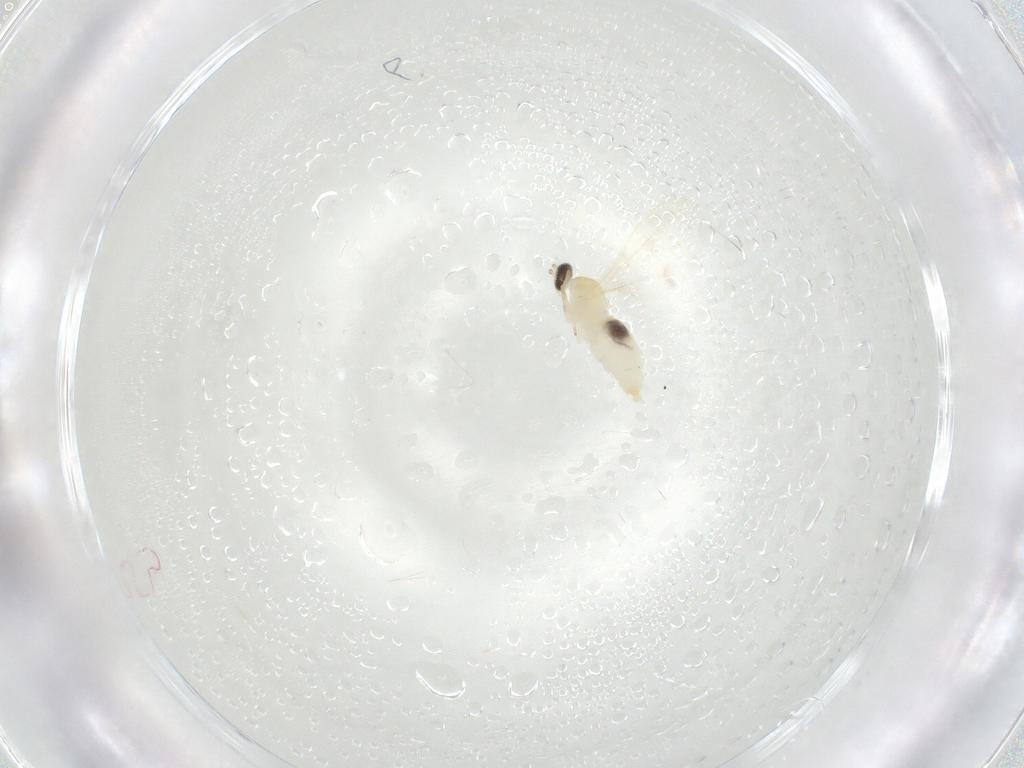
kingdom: Animalia
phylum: Arthropoda
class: Insecta
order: Diptera
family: Cecidomyiidae
